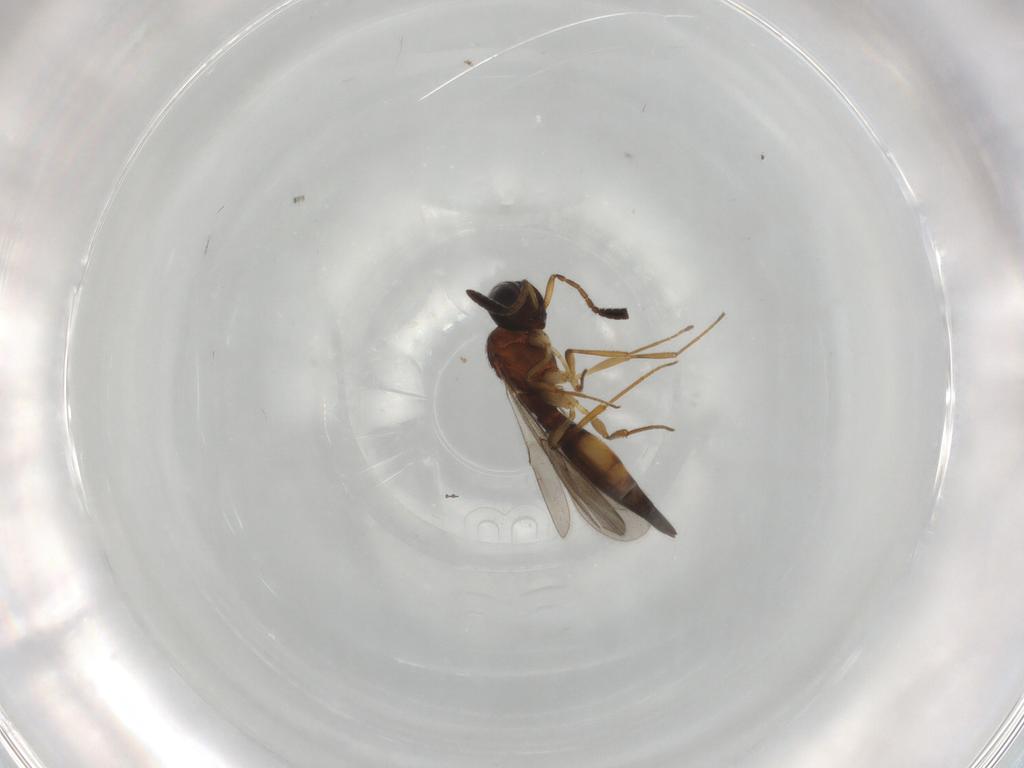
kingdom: Animalia
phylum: Arthropoda
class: Insecta
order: Hymenoptera
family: Scelionidae
